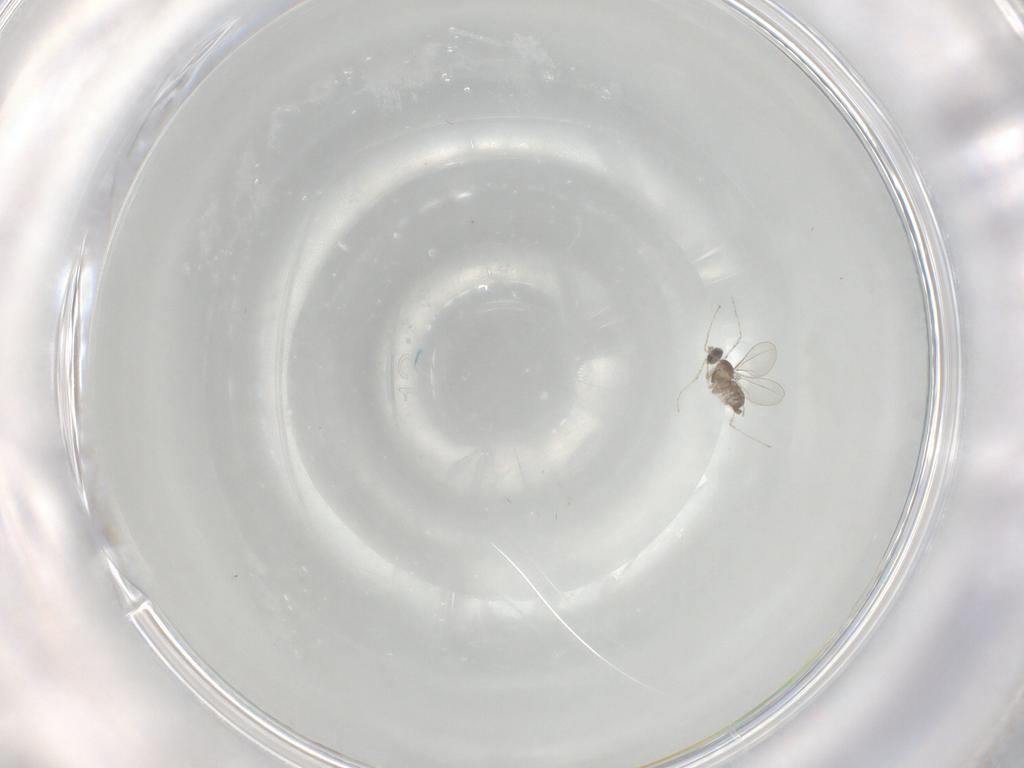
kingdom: Animalia
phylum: Arthropoda
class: Insecta
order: Diptera
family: Cecidomyiidae
